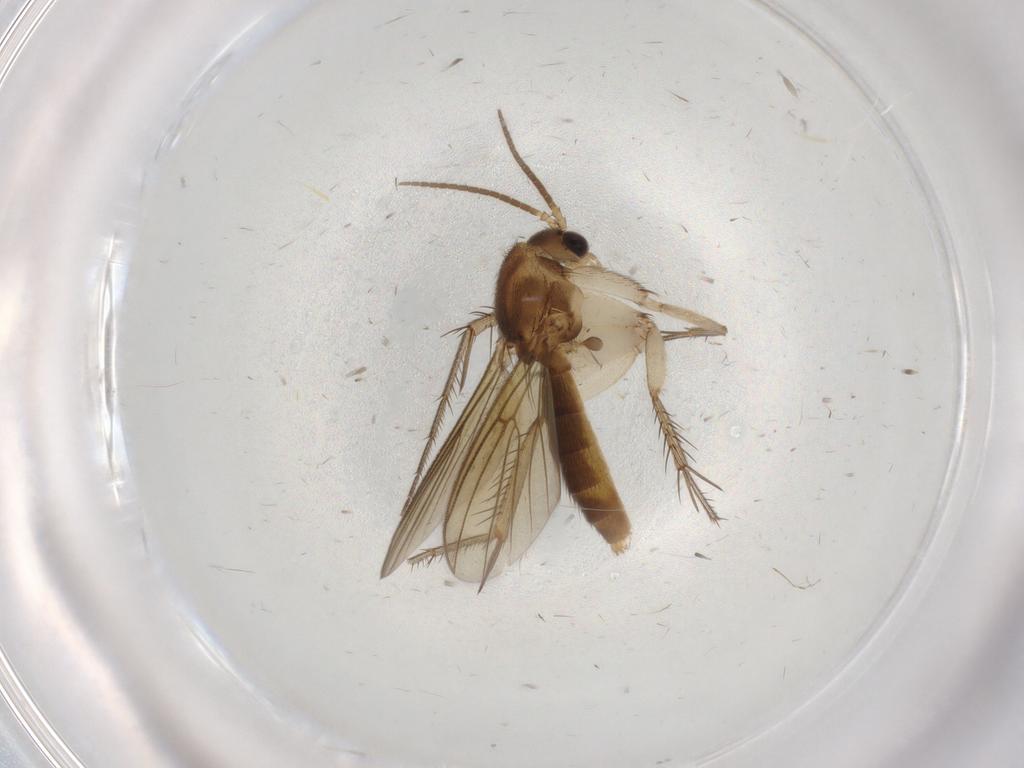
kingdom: Animalia
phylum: Arthropoda
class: Insecta
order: Diptera
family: Mycetophilidae
